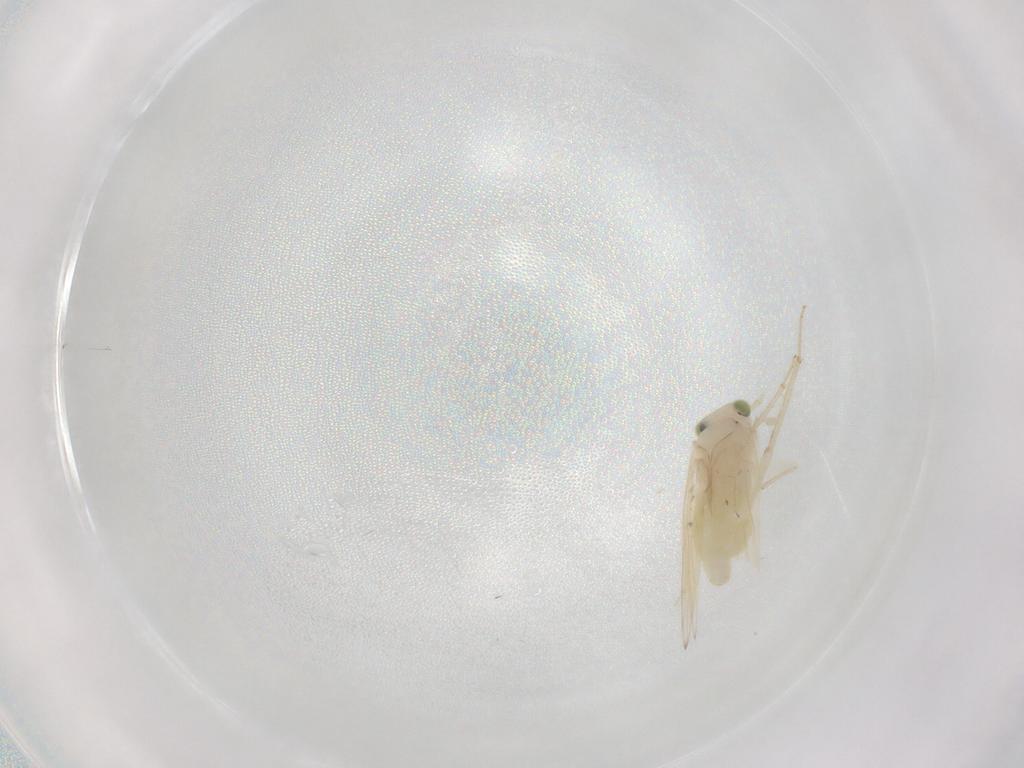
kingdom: Animalia
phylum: Arthropoda
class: Insecta
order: Psocodea
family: Lepidopsocidae
